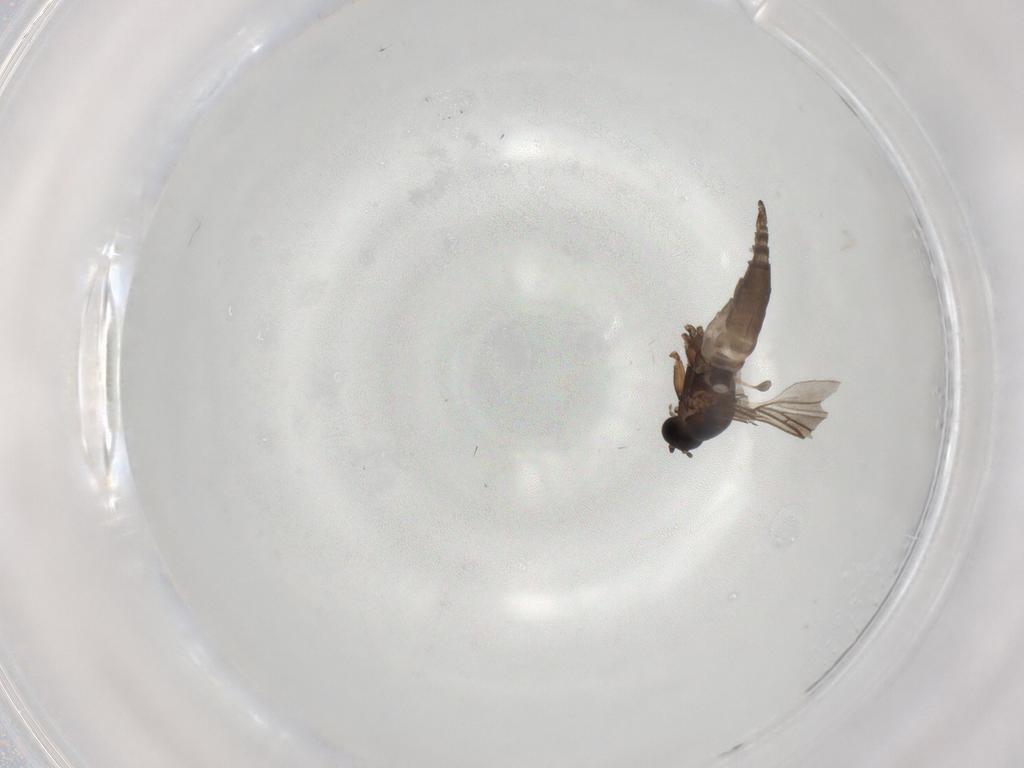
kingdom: Animalia
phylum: Arthropoda
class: Insecta
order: Diptera
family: Sciaridae
